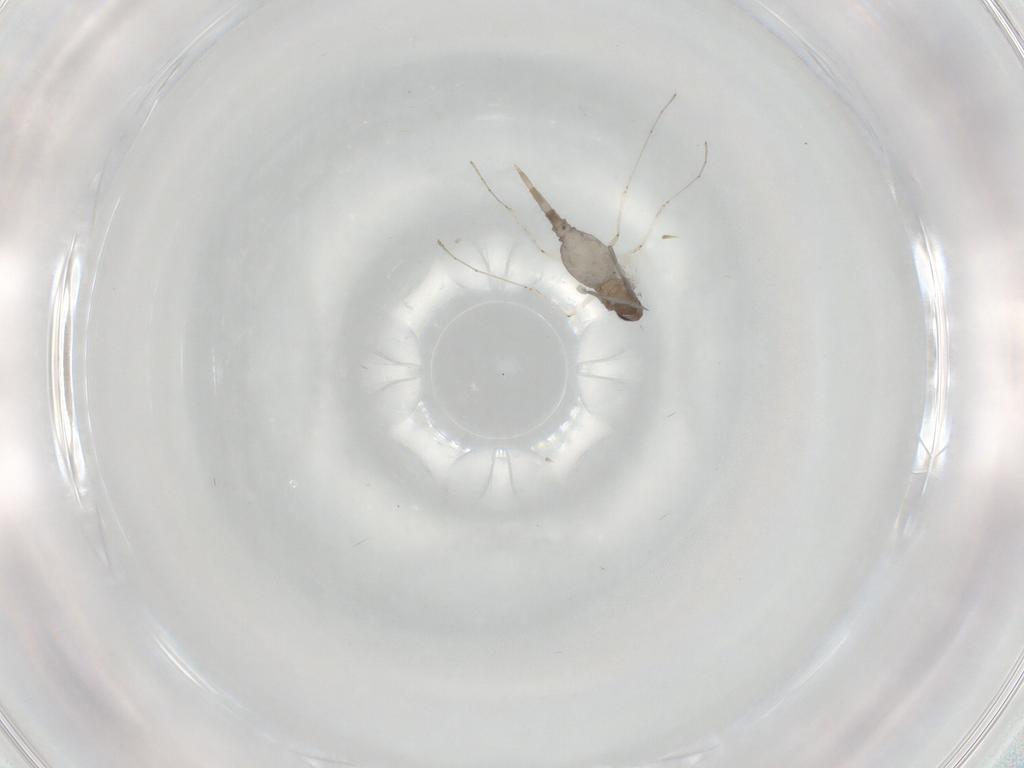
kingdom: Animalia
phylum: Arthropoda
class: Insecta
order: Diptera
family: Cecidomyiidae
